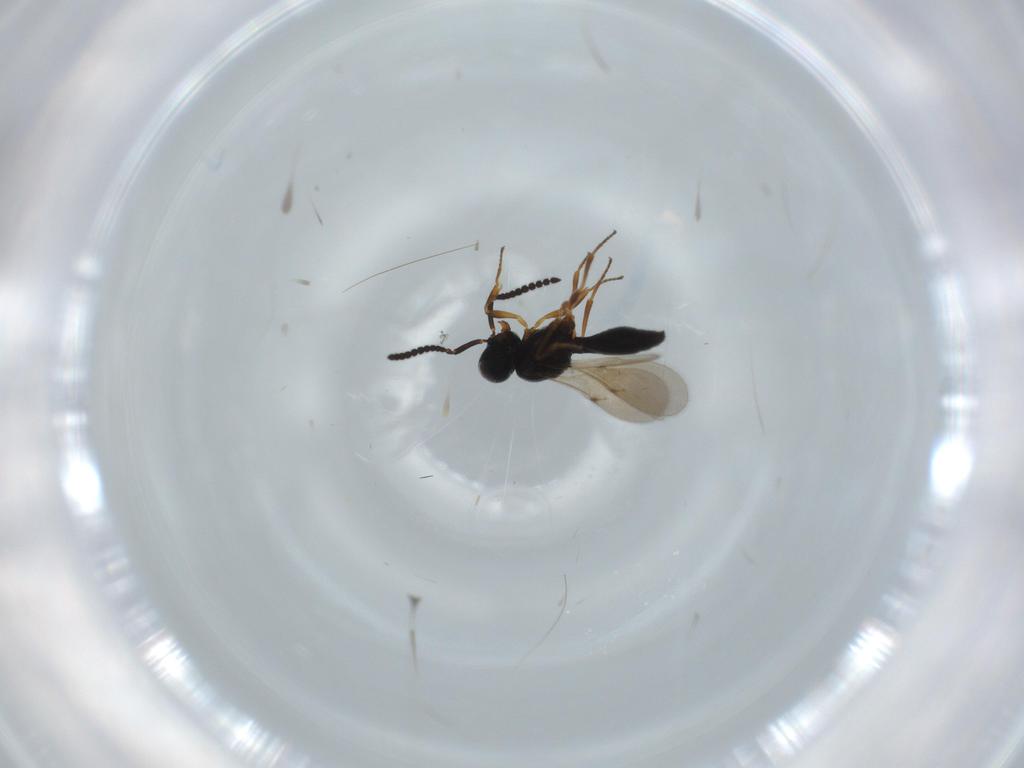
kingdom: Animalia
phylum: Arthropoda
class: Insecta
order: Hymenoptera
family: Scelionidae
